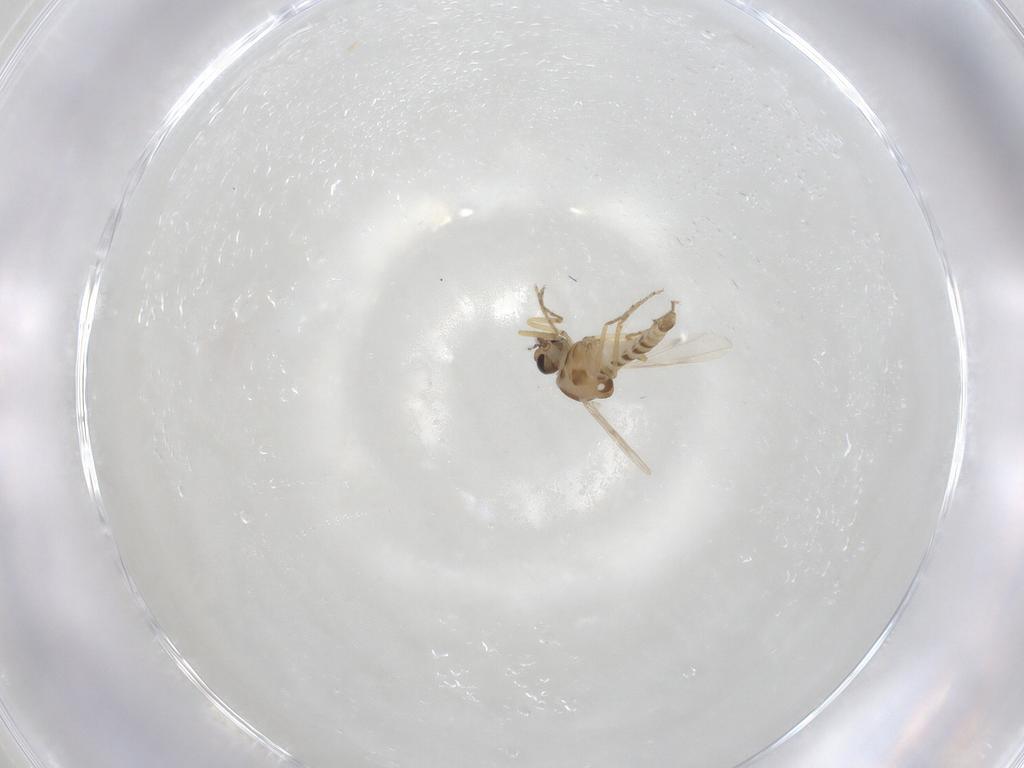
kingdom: Animalia
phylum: Arthropoda
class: Insecta
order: Diptera
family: Ceratopogonidae
